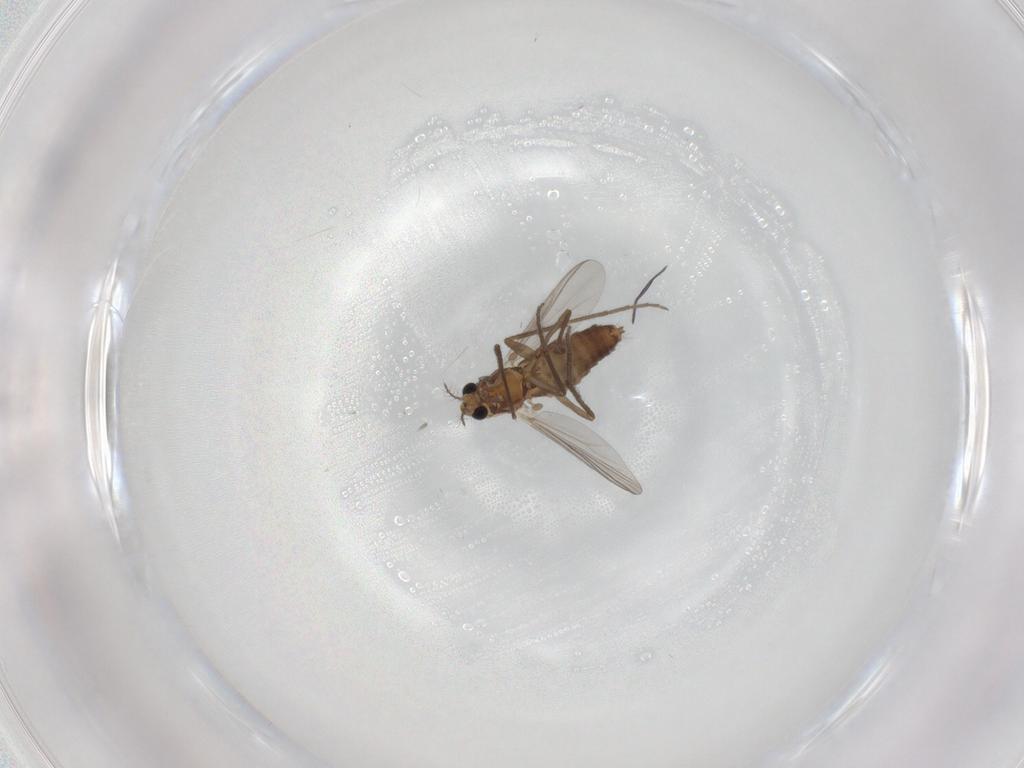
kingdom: Animalia
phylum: Arthropoda
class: Insecta
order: Diptera
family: Chironomidae
